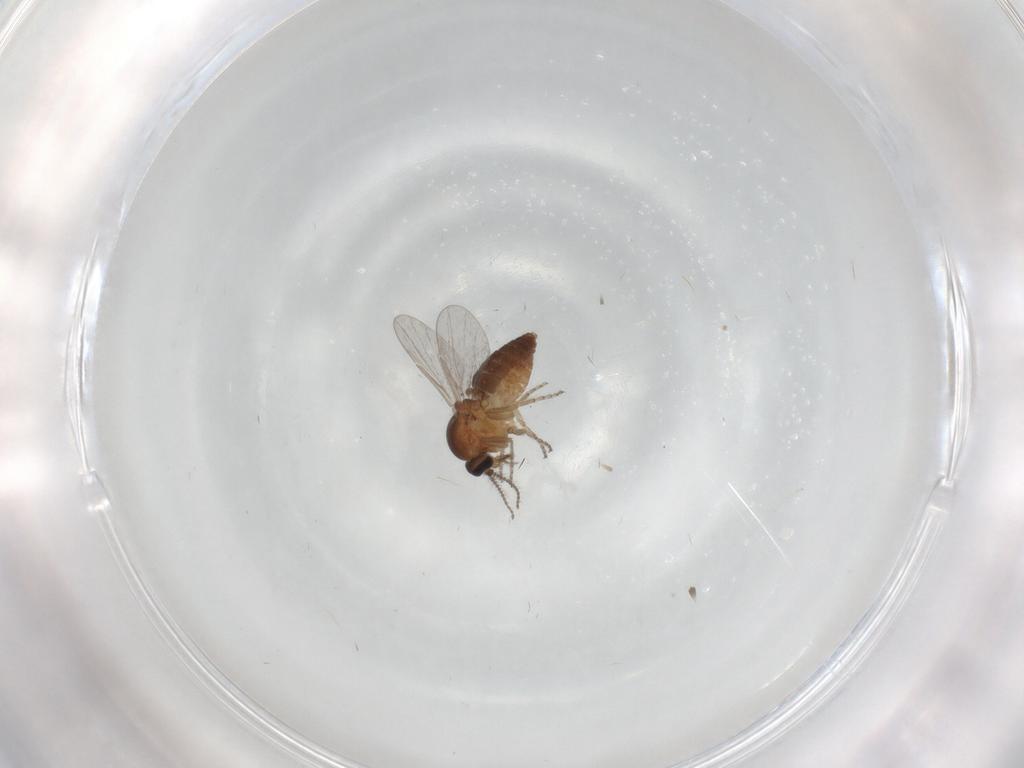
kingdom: Animalia
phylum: Arthropoda
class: Insecta
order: Diptera
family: Ceratopogonidae
